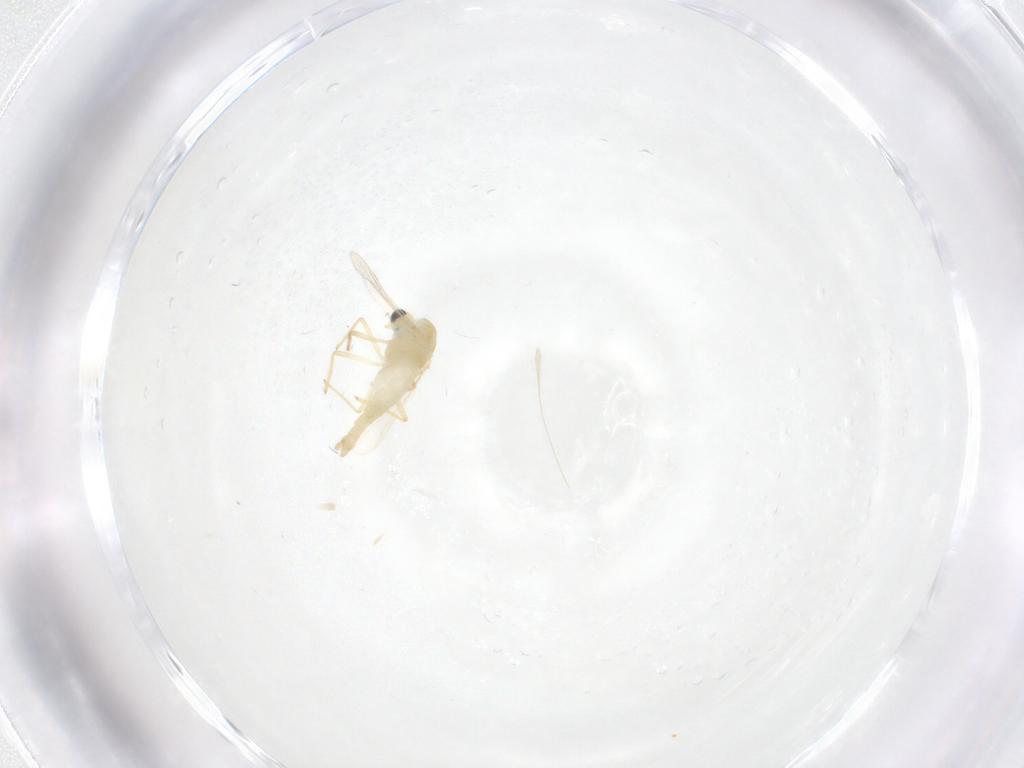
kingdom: Animalia
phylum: Arthropoda
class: Insecta
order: Diptera
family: Chironomidae
